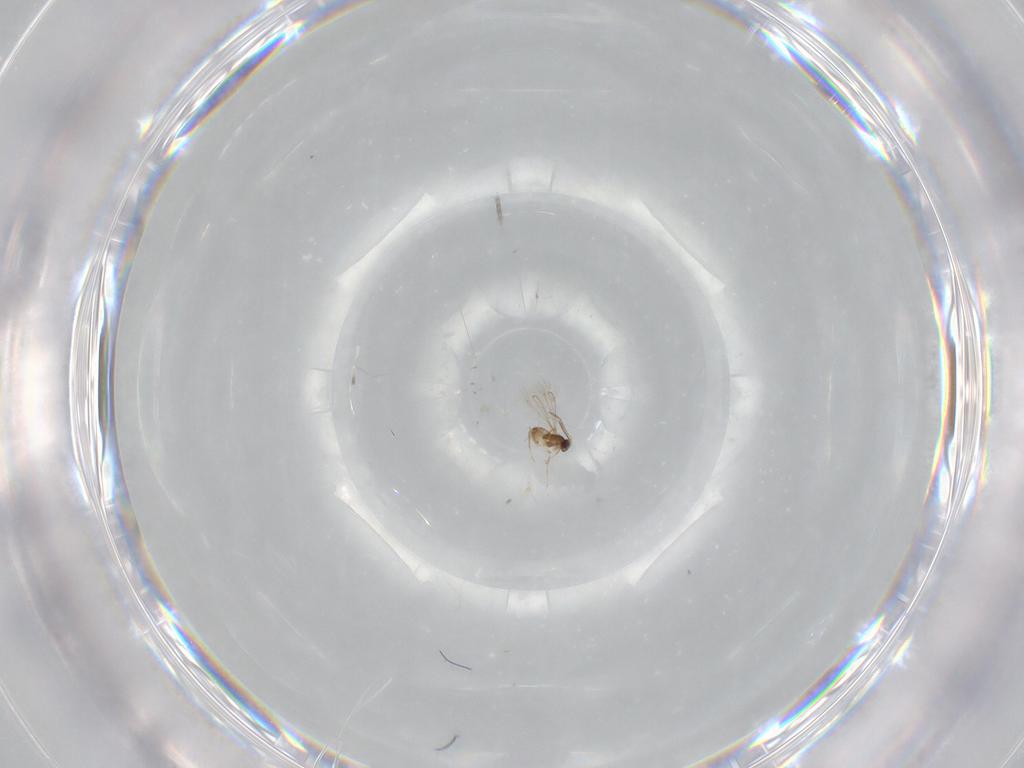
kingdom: Animalia
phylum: Arthropoda
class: Insecta
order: Hymenoptera
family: Mymaridae
